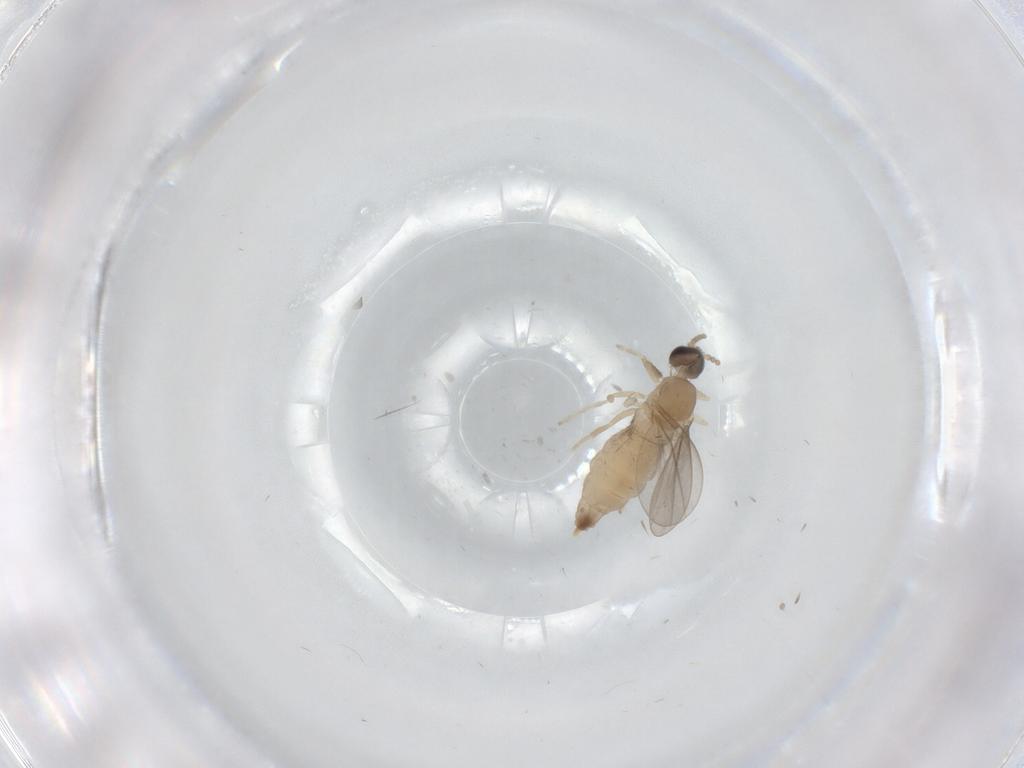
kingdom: Animalia
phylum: Arthropoda
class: Insecta
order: Diptera
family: Cecidomyiidae
